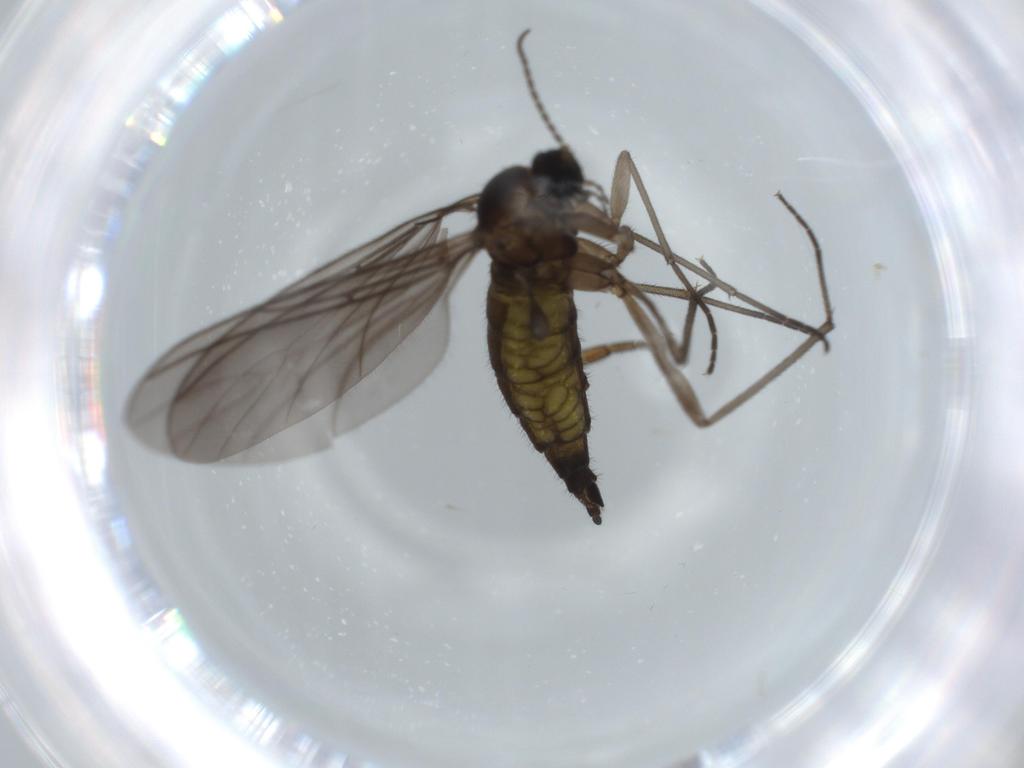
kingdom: Animalia
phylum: Arthropoda
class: Insecta
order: Diptera
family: Sciaridae
